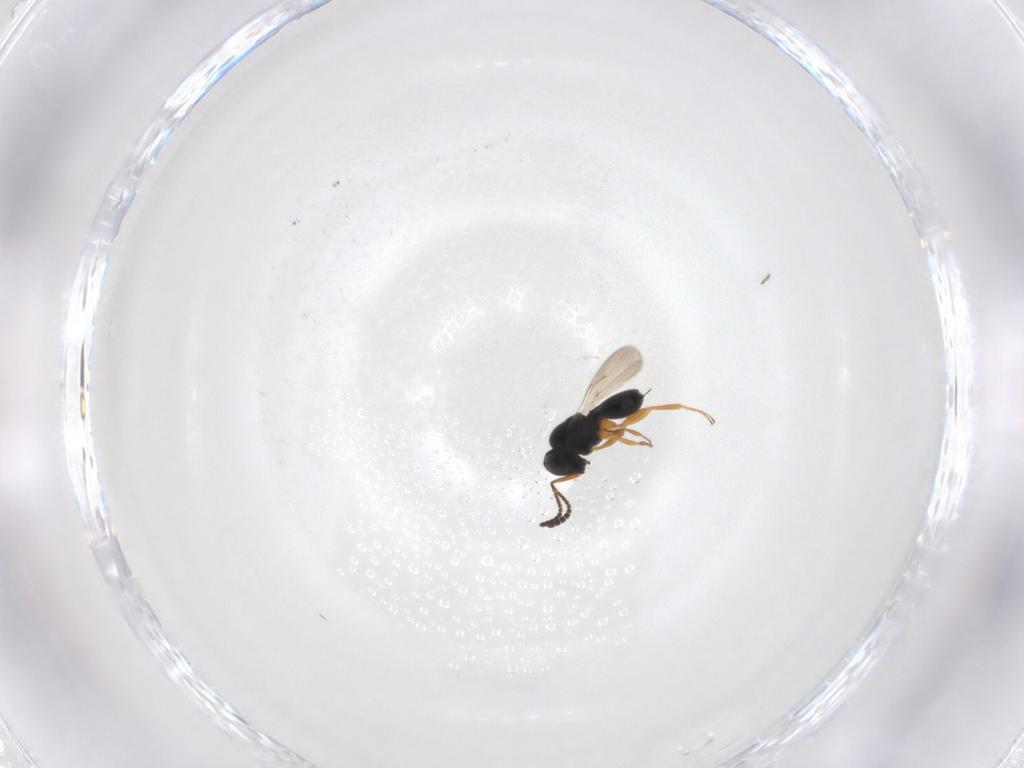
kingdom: Animalia
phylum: Arthropoda
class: Insecta
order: Hymenoptera
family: Scelionidae
